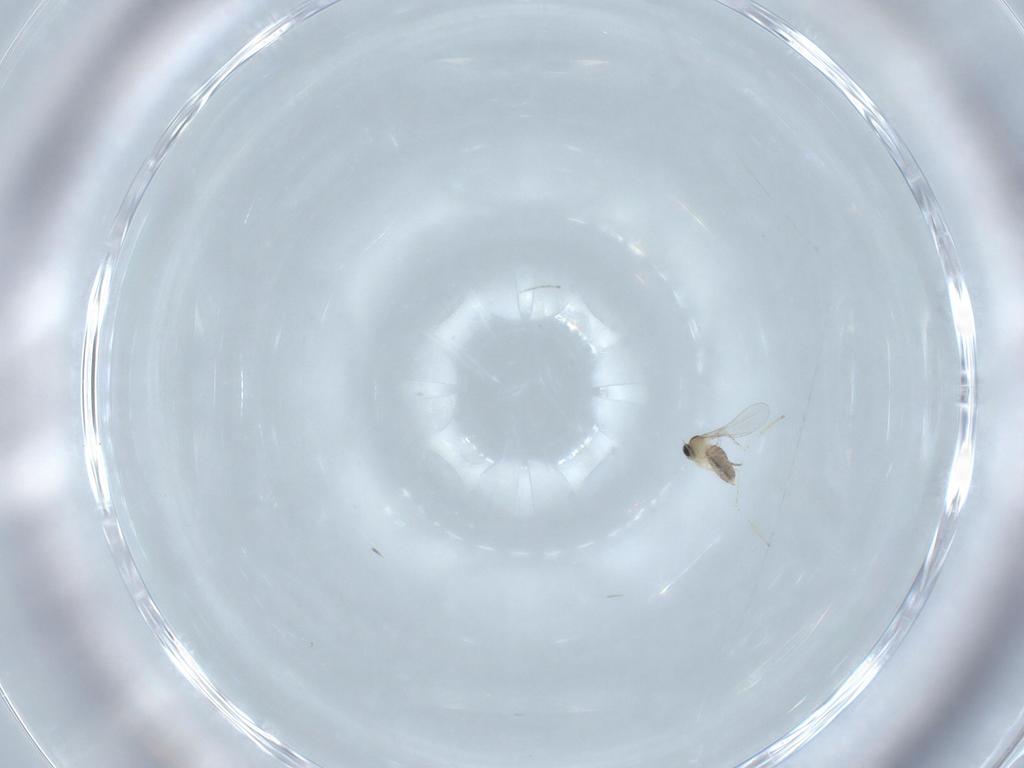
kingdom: Animalia
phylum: Arthropoda
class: Insecta
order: Diptera
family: Cecidomyiidae
